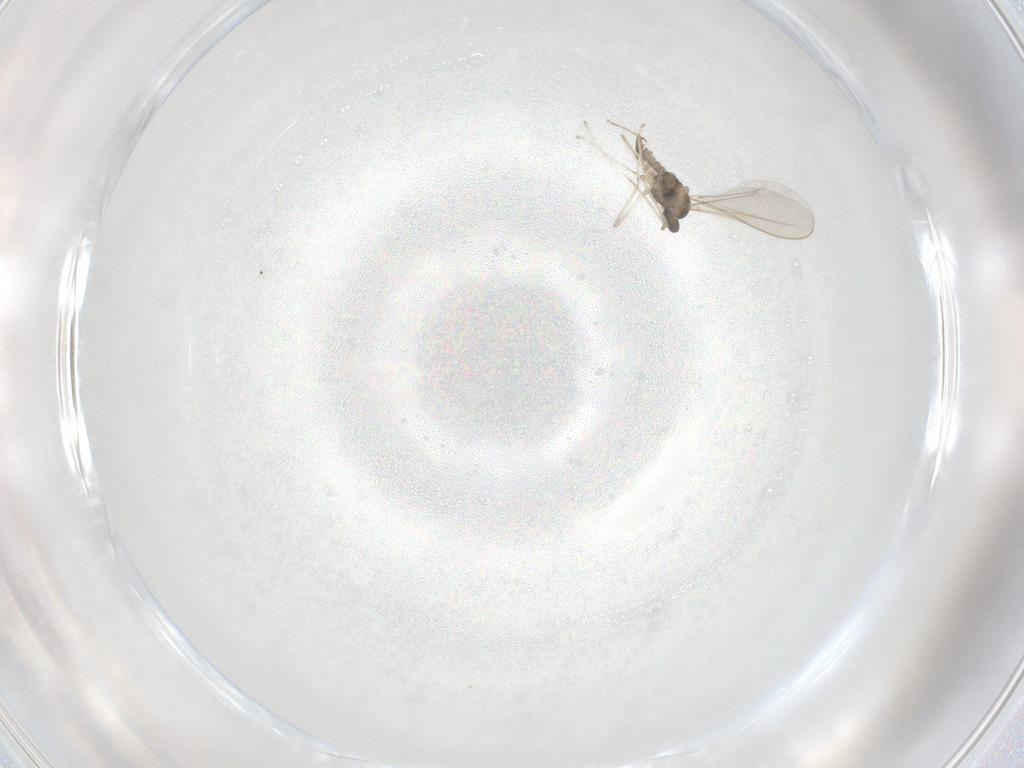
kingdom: Animalia
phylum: Arthropoda
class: Insecta
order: Diptera
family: Cecidomyiidae
